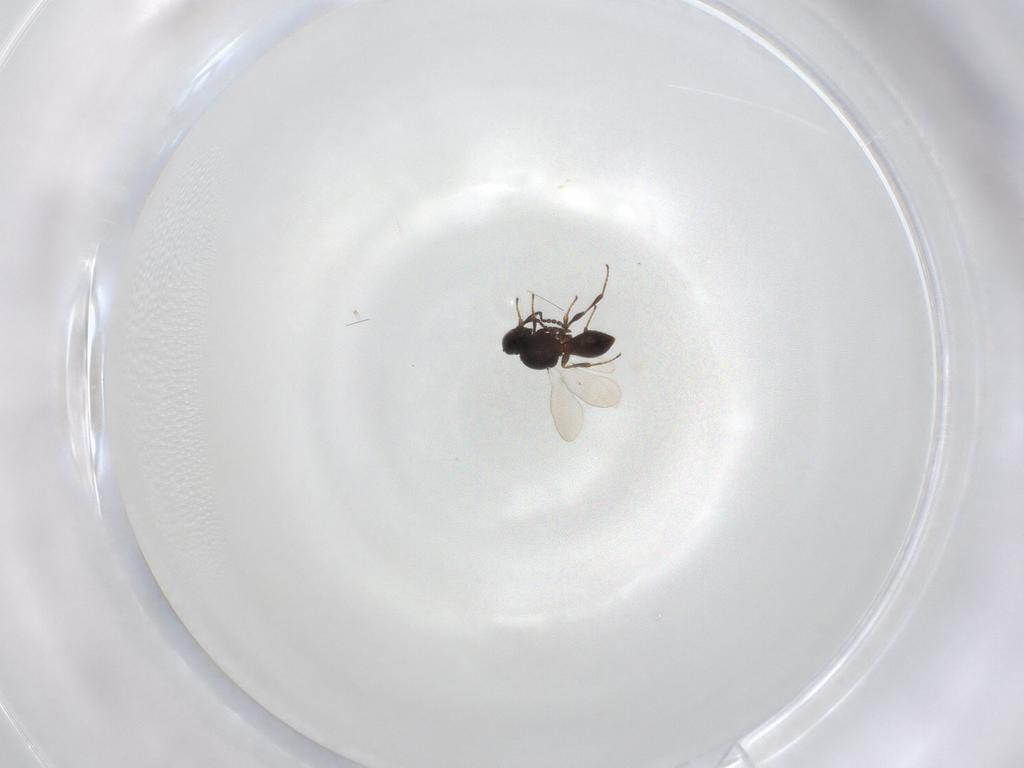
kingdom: Animalia
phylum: Arthropoda
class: Insecta
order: Hymenoptera
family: Platygastridae
